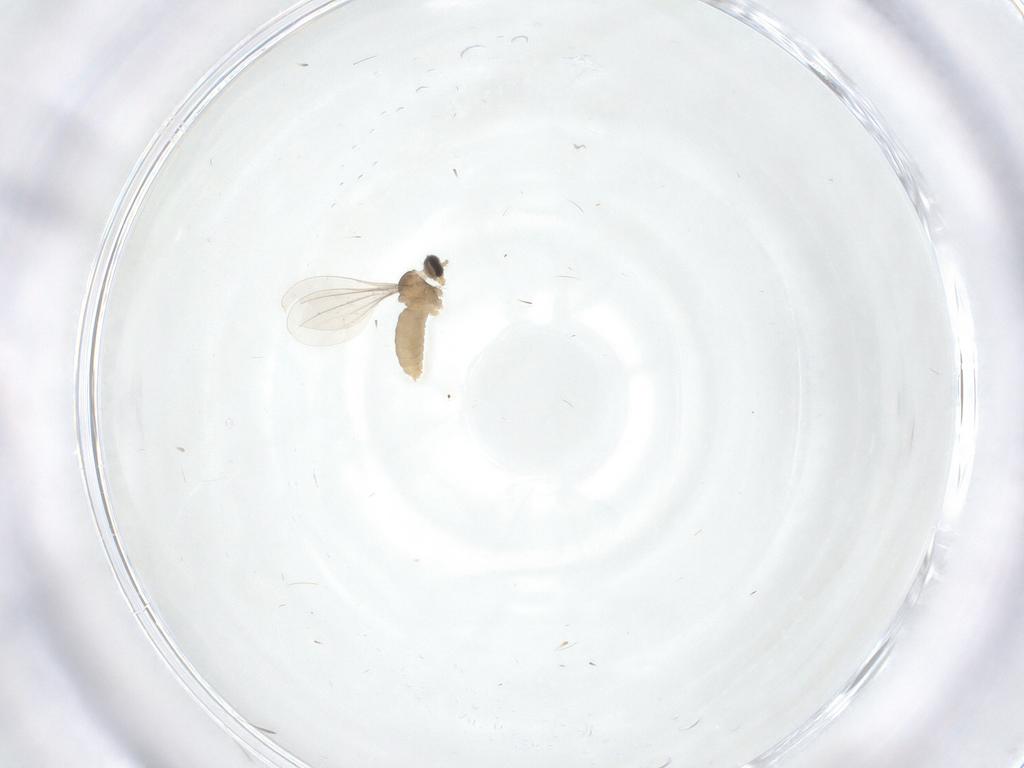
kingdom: Animalia
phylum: Arthropoda
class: Insecta
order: Diptera
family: Cecidomyiidae
